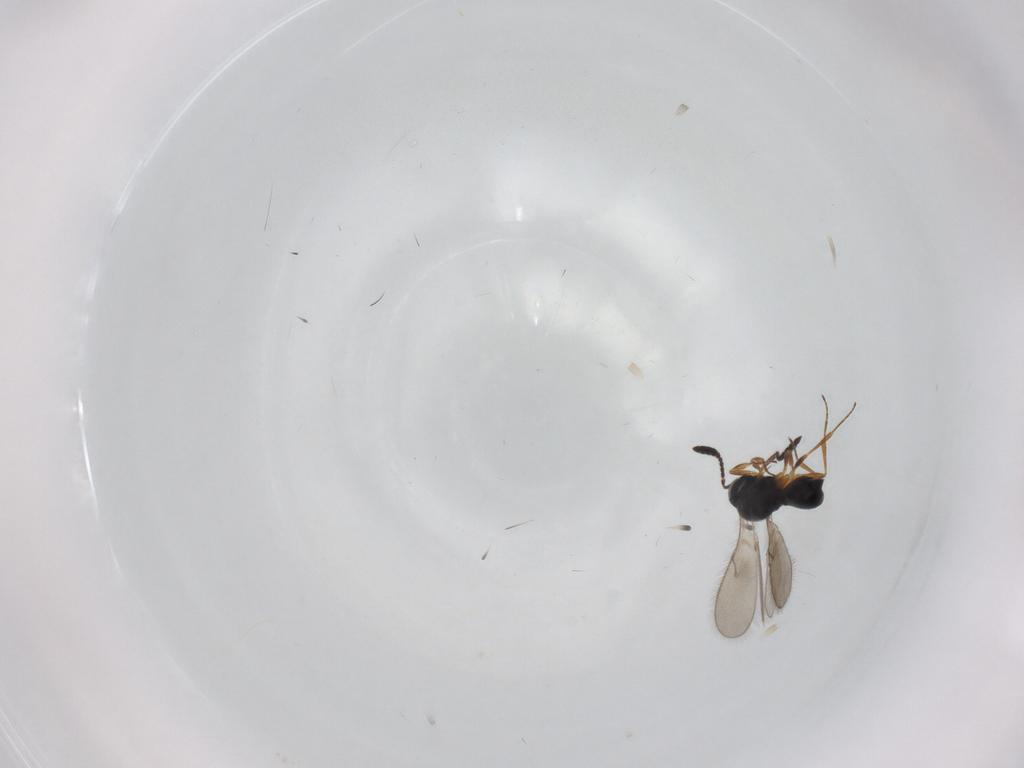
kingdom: Animalia
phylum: Arthropoda
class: Insecta
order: Hymenoptera
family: Scelionidae
